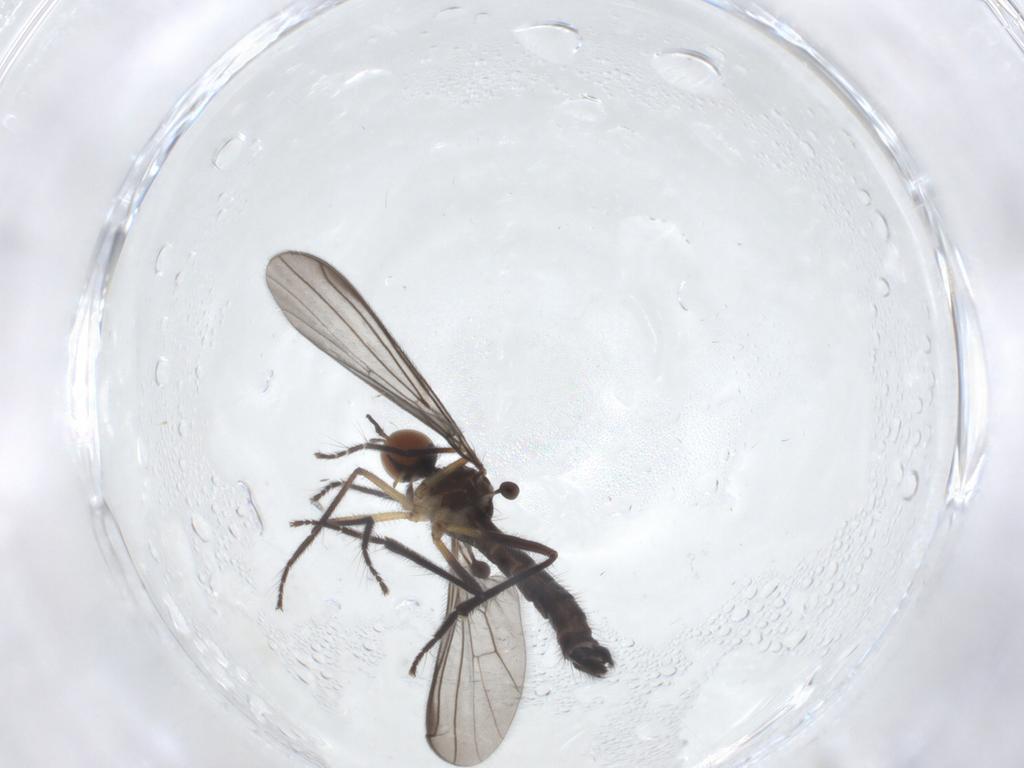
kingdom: Animalia
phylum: Arthropoda
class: Insecta
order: Diptera
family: Empididae
